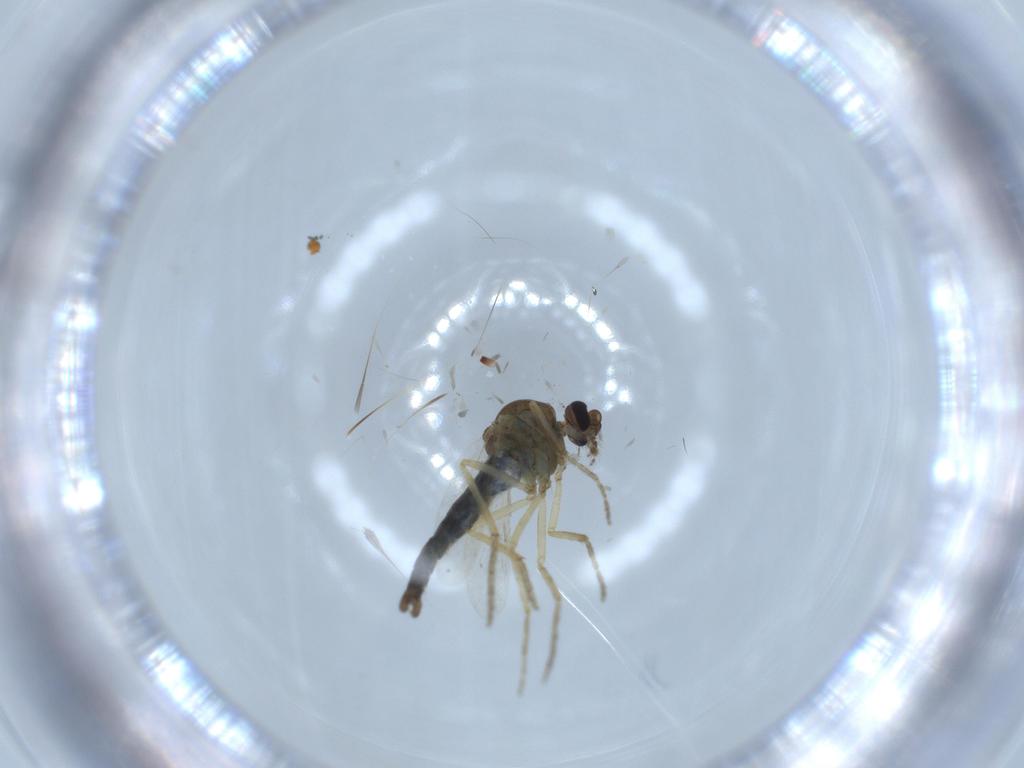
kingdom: Animalia
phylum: Arthropoda
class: Insecta
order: Diptera
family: Ceratopogonidae
